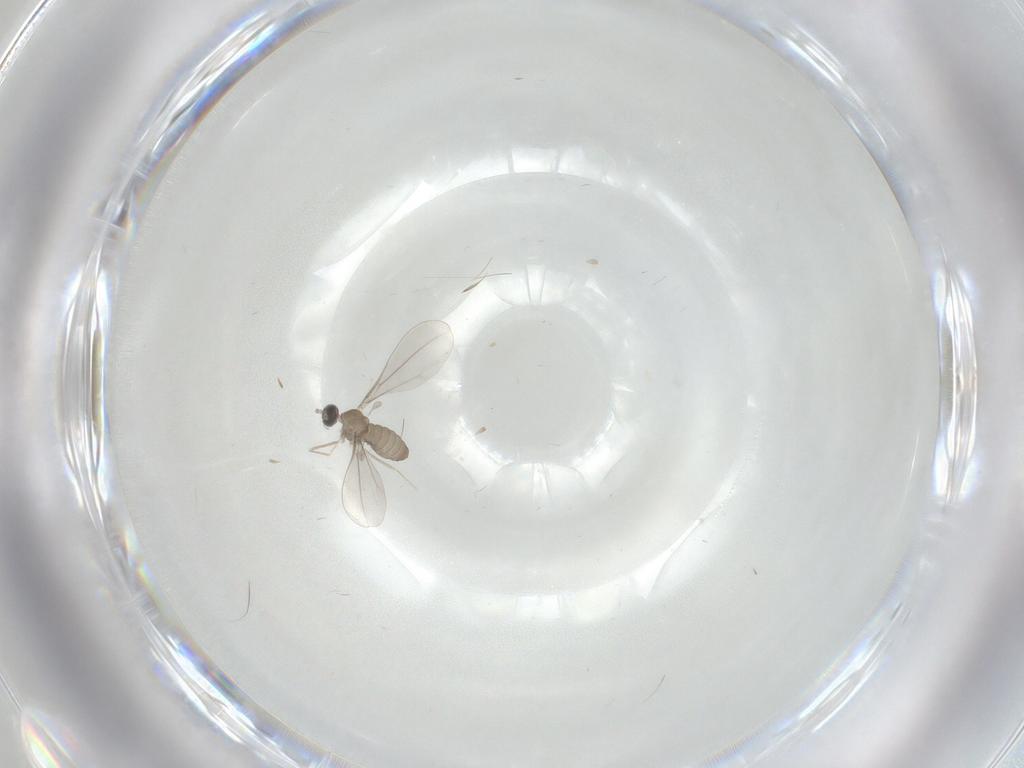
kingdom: Animalia
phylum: Arthropoda
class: Insecta
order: Diptera
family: Cecidomyiidae
